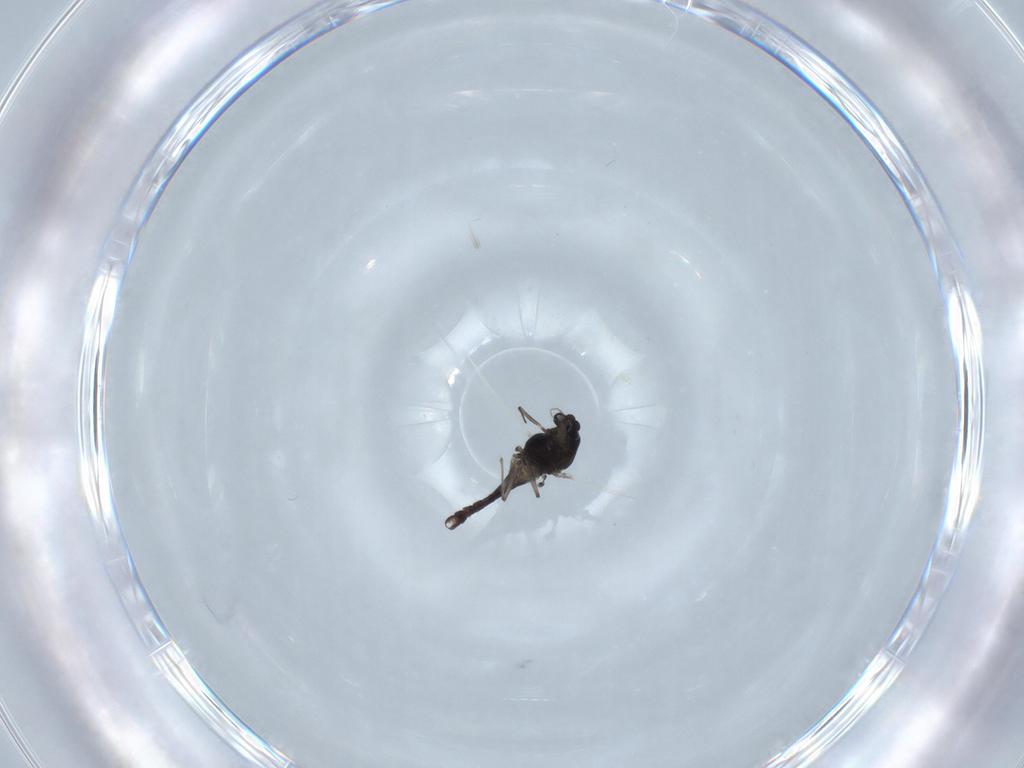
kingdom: Animalia
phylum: Arthropoda
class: Insecta
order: Diptera
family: Chironomidae
